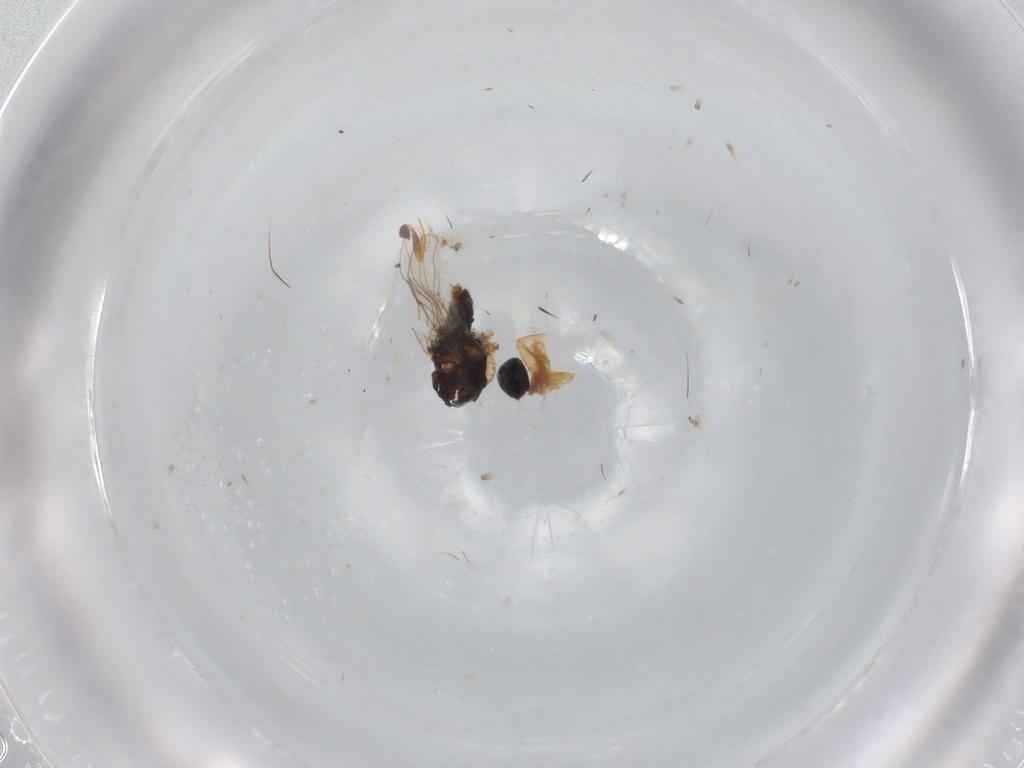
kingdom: Animalia
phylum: Arthropoda
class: Insecta
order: Diptera
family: Hybotidae
